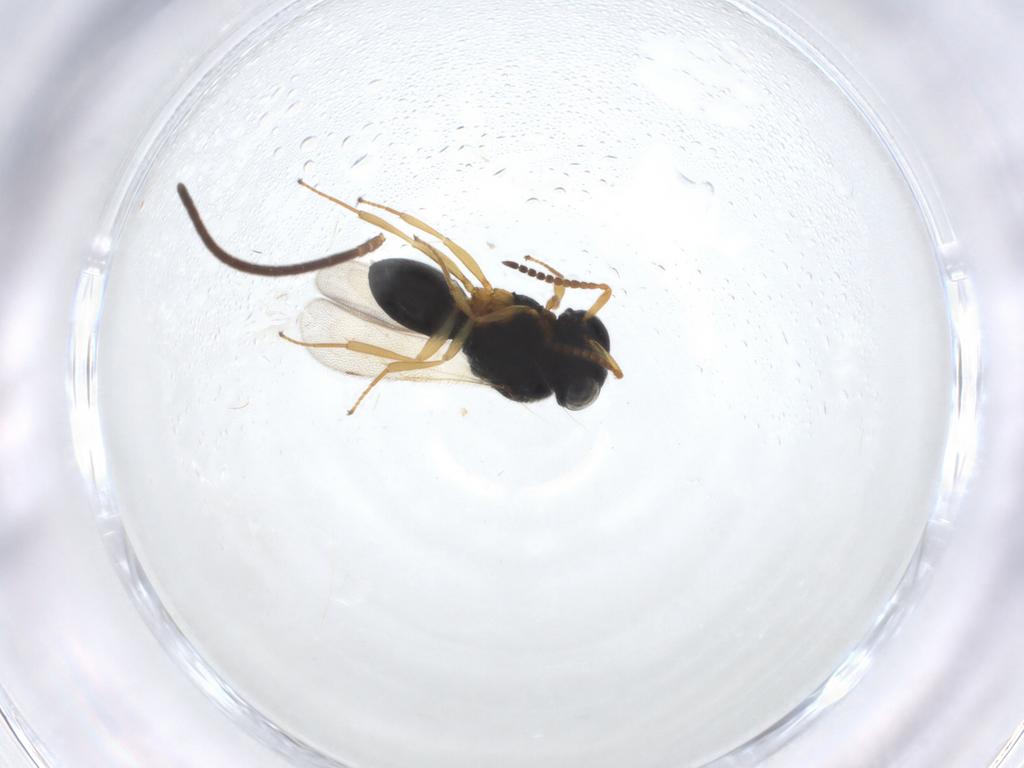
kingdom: Animalia
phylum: Arthropoda
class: Insecta
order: Hymenoptera
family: Formicidae
